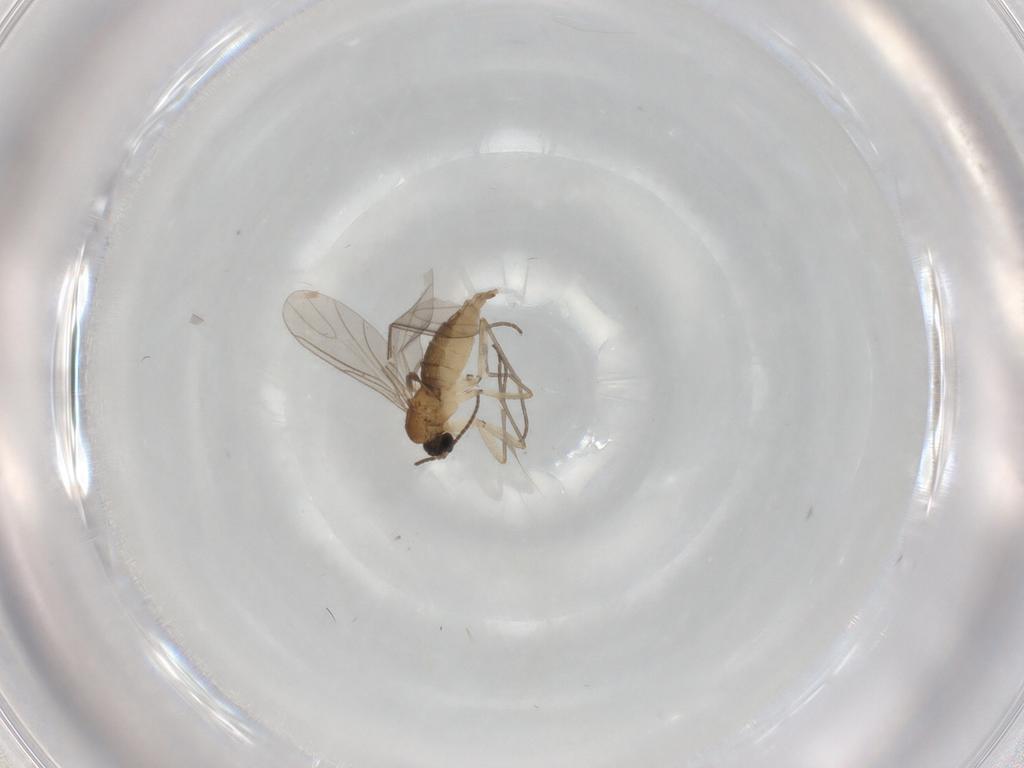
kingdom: Animalia
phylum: Arthropoda
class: Insecta
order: Diptera
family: Sciaridae
